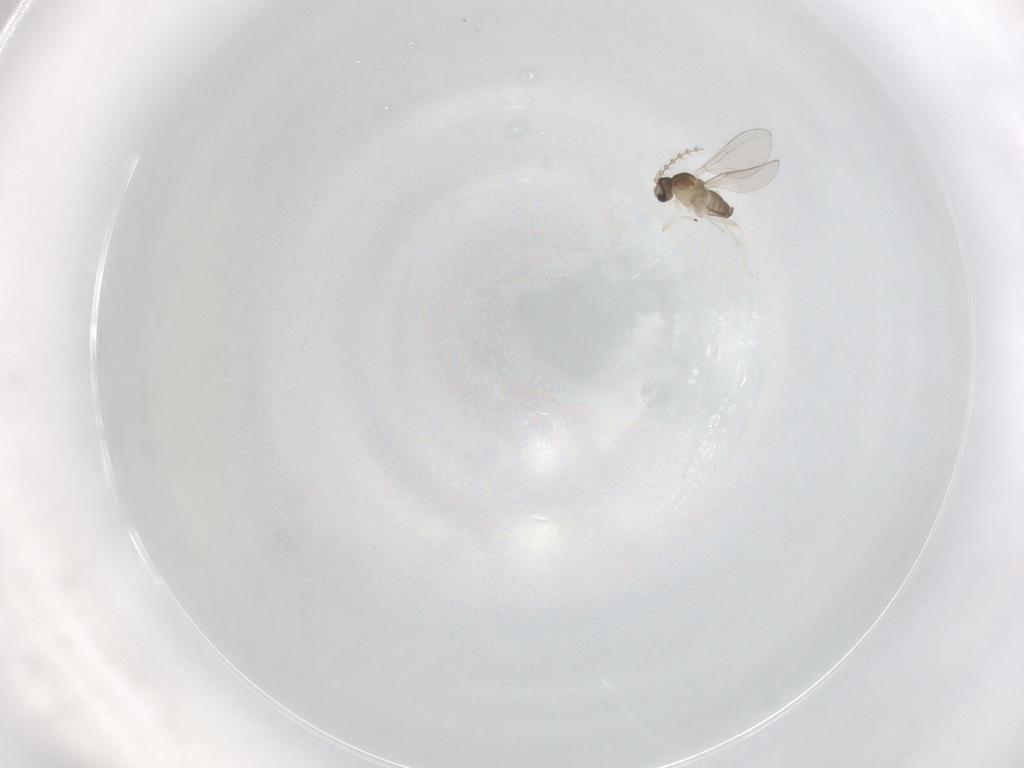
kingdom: Animalia
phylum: Arthropoda
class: Insecta
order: Diptera
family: Cecidomyiidae
